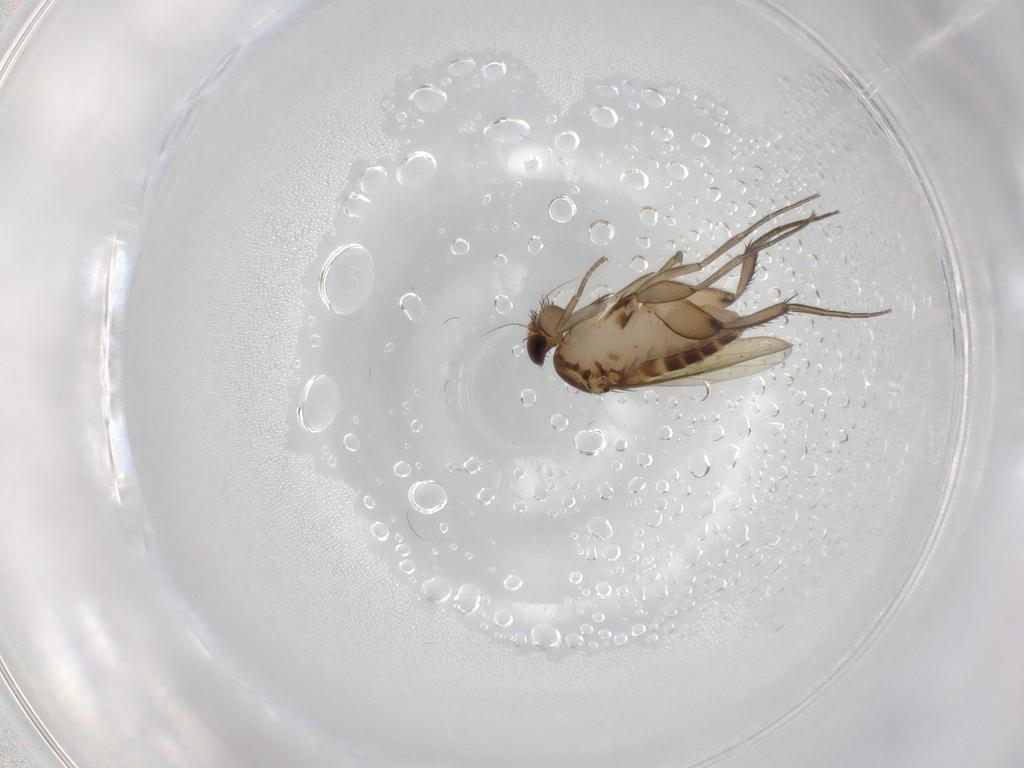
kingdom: Animalia
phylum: Arthropoda
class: Insecta
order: Diptera
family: Phoridae
